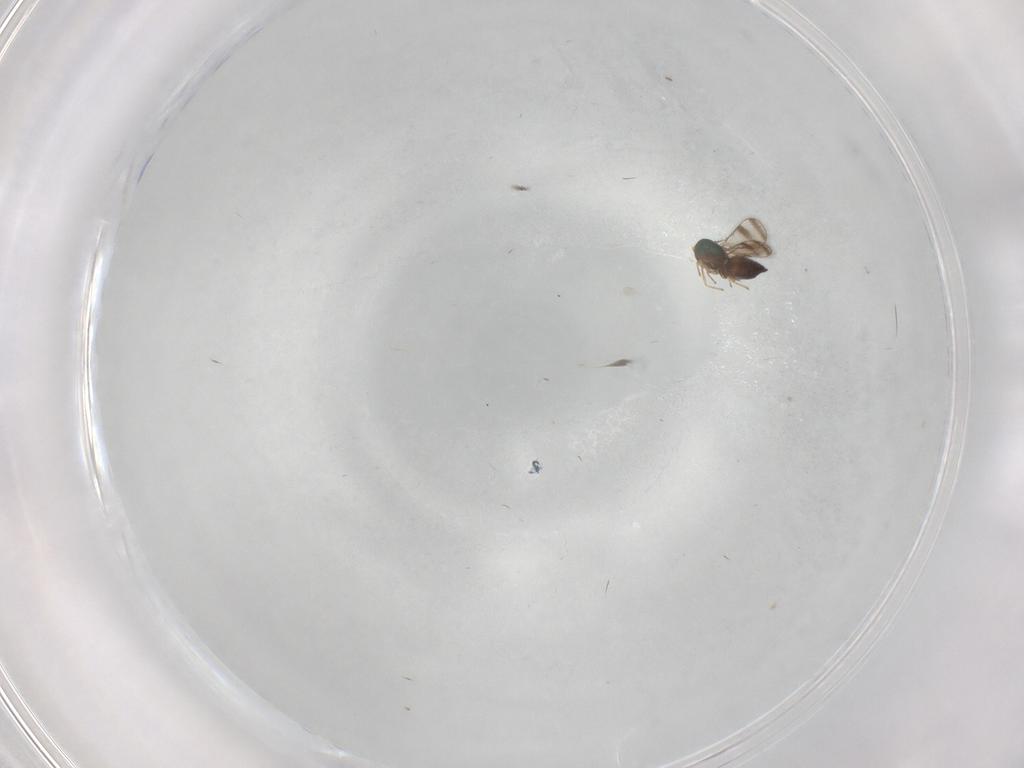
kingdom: Animalia
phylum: Arthropoda
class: Insecta
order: Hymenoptera
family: Eulophidae
